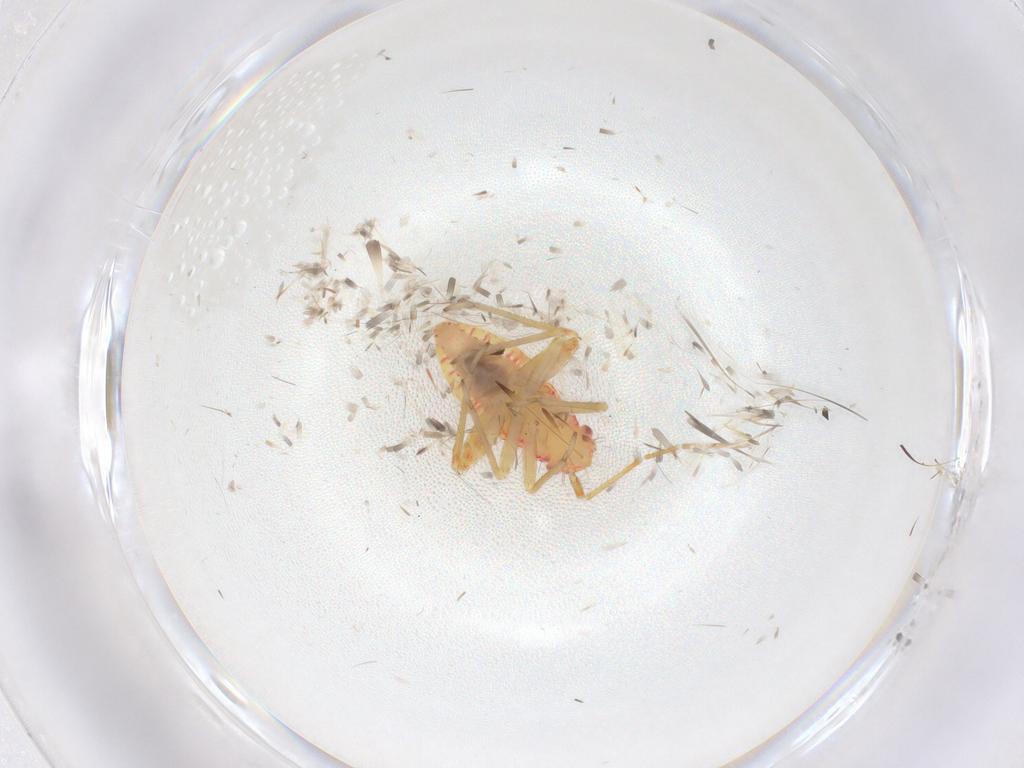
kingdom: Animalia
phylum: Arthropoda
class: Insecta
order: Hemiptera
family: Miridae
